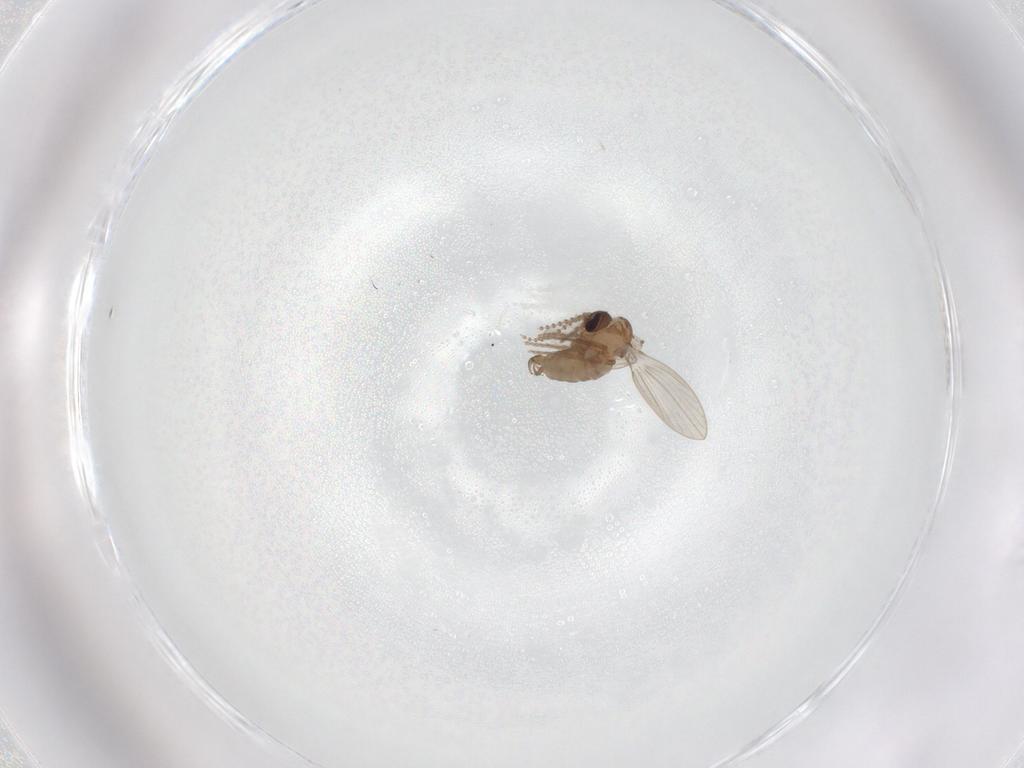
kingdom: Animalia
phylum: Arthropoda
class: Insecta
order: Diptera
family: Psychodidae
